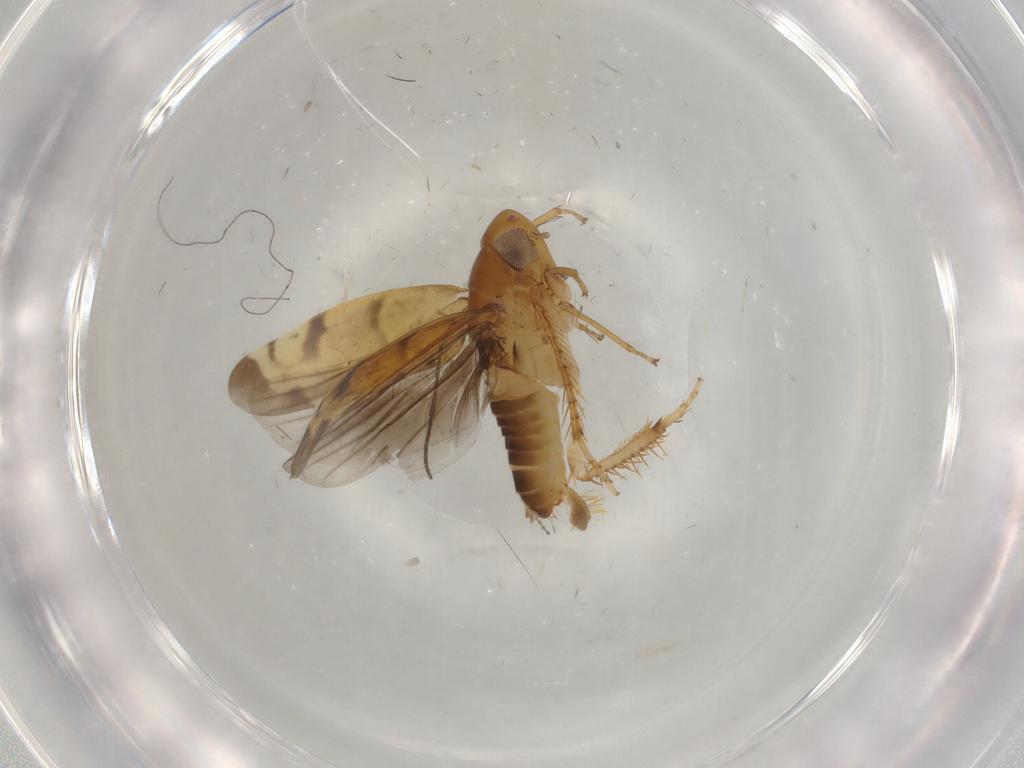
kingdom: Animalia
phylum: Arthropoda
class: Insecta
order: Hemiptera
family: Cicadellidae
